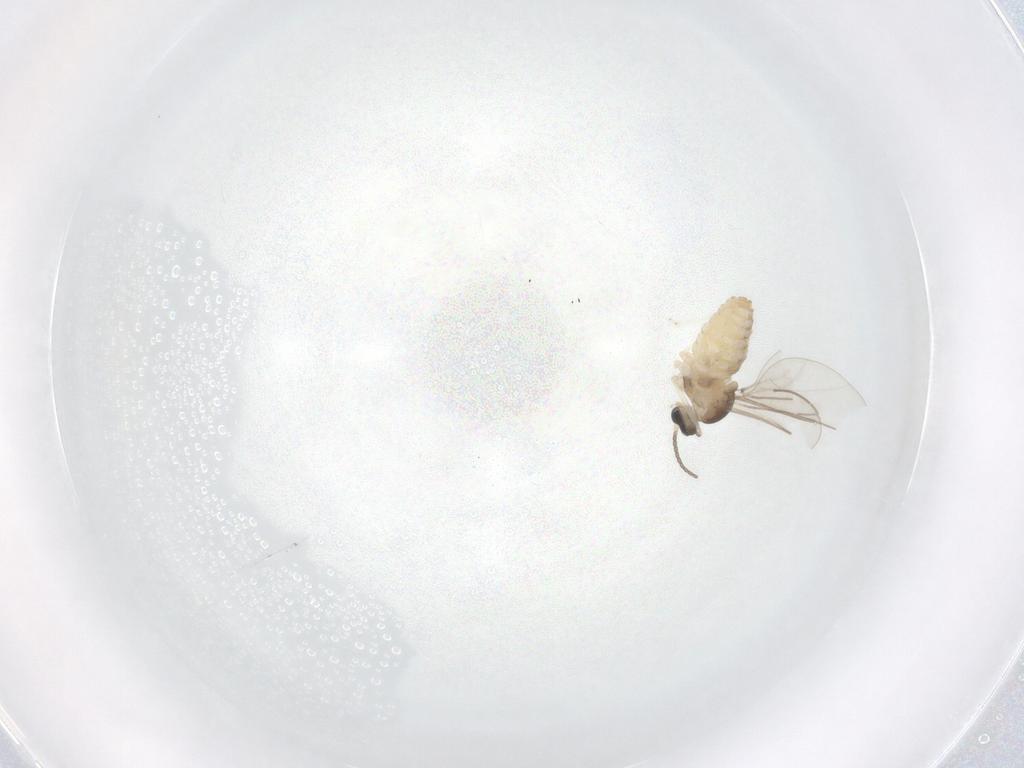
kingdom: Animalia
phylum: Arthropoda
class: Insecta
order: Diptera
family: Cecidomyiidae
